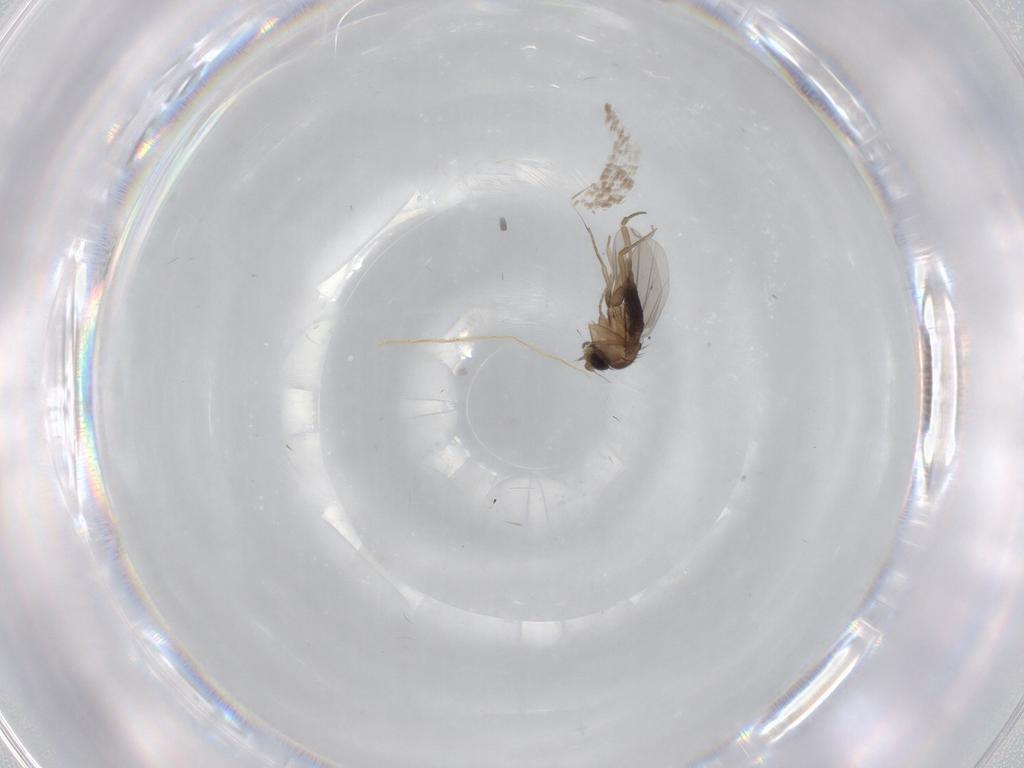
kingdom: Animalia
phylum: Arthropoda
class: Insecta
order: Diptera
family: Cecidomyiidae
